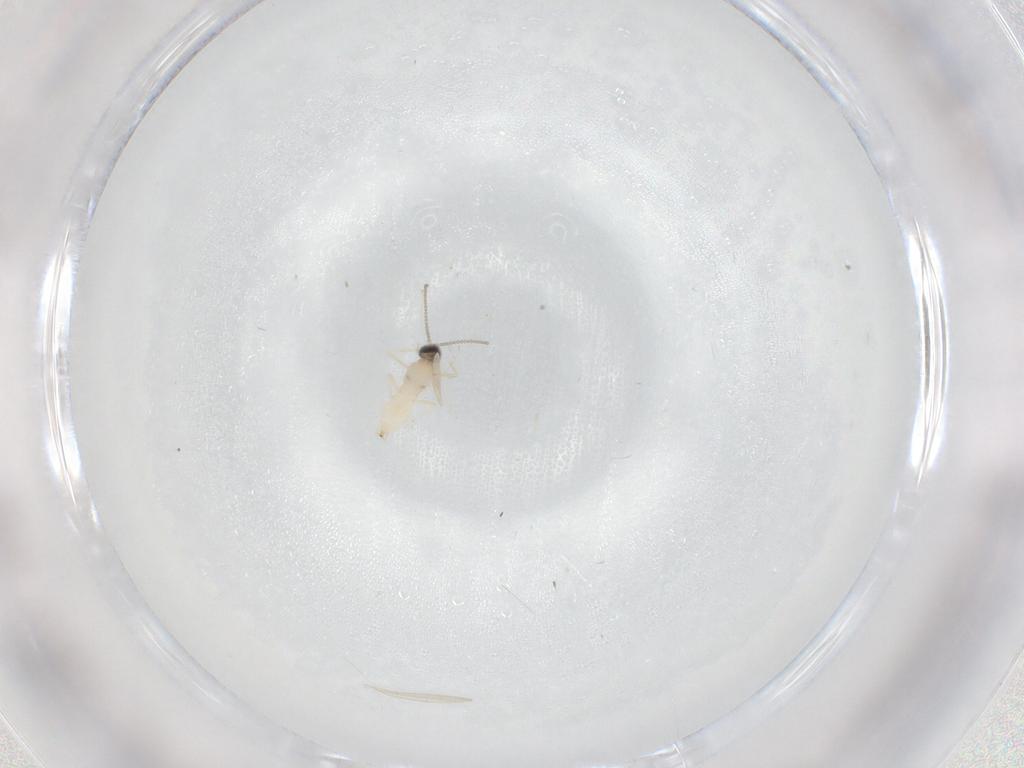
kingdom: Animalia
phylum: Arthropoda
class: Insecta
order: Diptera
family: Cecidomyiidae
